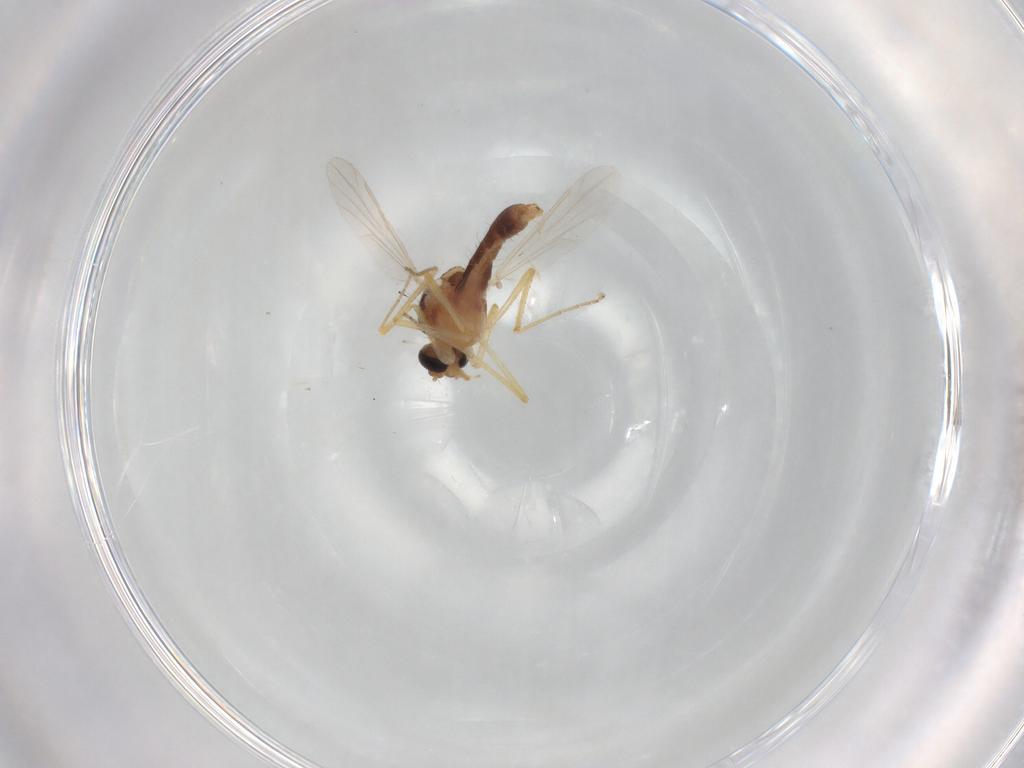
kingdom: Animalia
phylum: Arthropoda
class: Insecta
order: Diptera
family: Ceratopogonidae
